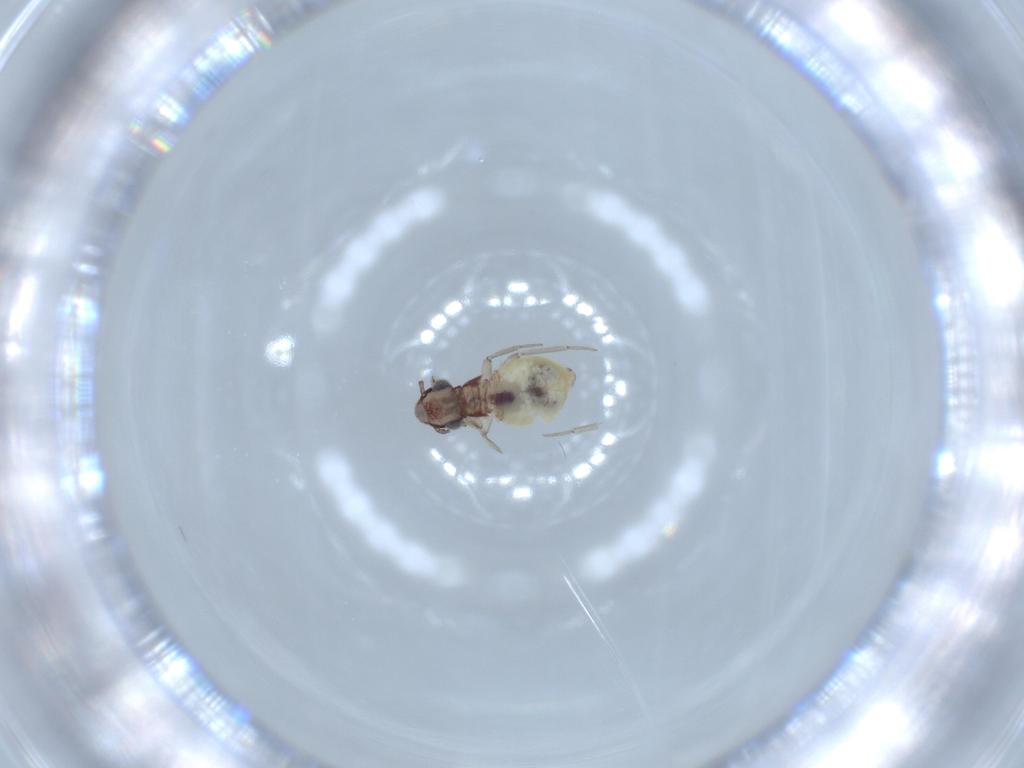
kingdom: Animalia
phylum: Arthropoda
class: Insecta
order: Psocodea
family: Lepidopsocidae
